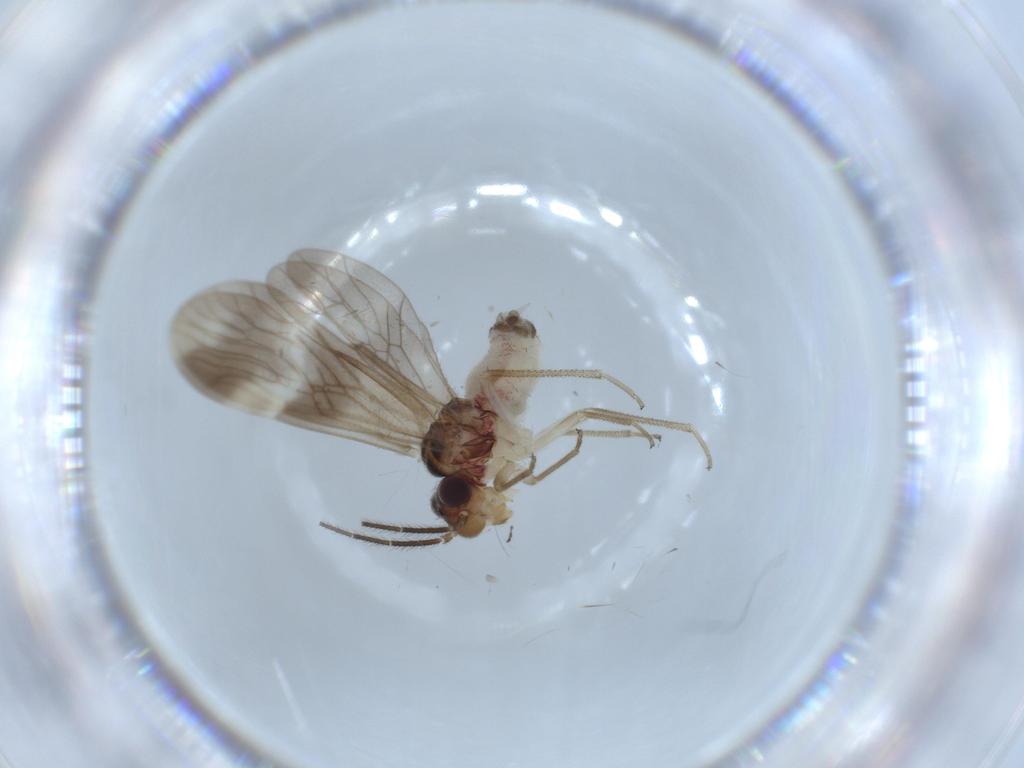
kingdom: Animalia
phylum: Arthropoda
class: Insecta
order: Psocodea
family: Amphipsocidae
